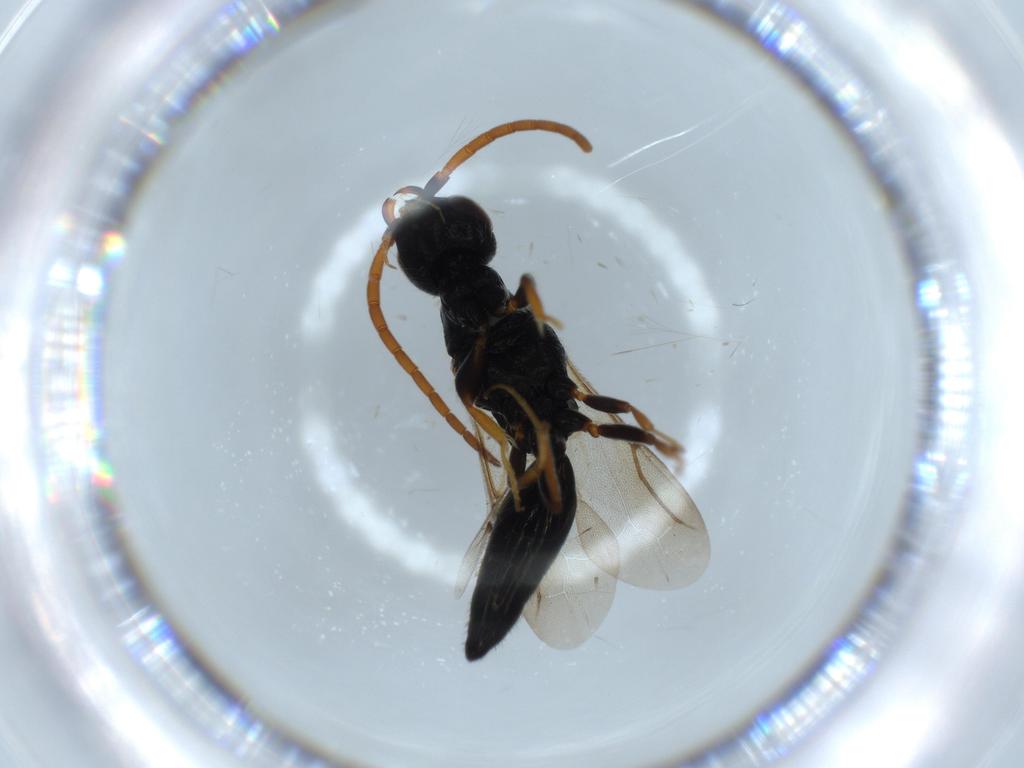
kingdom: Animalia
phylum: Arthropoda
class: Insecta
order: Hymenoptera
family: Bethylidae
